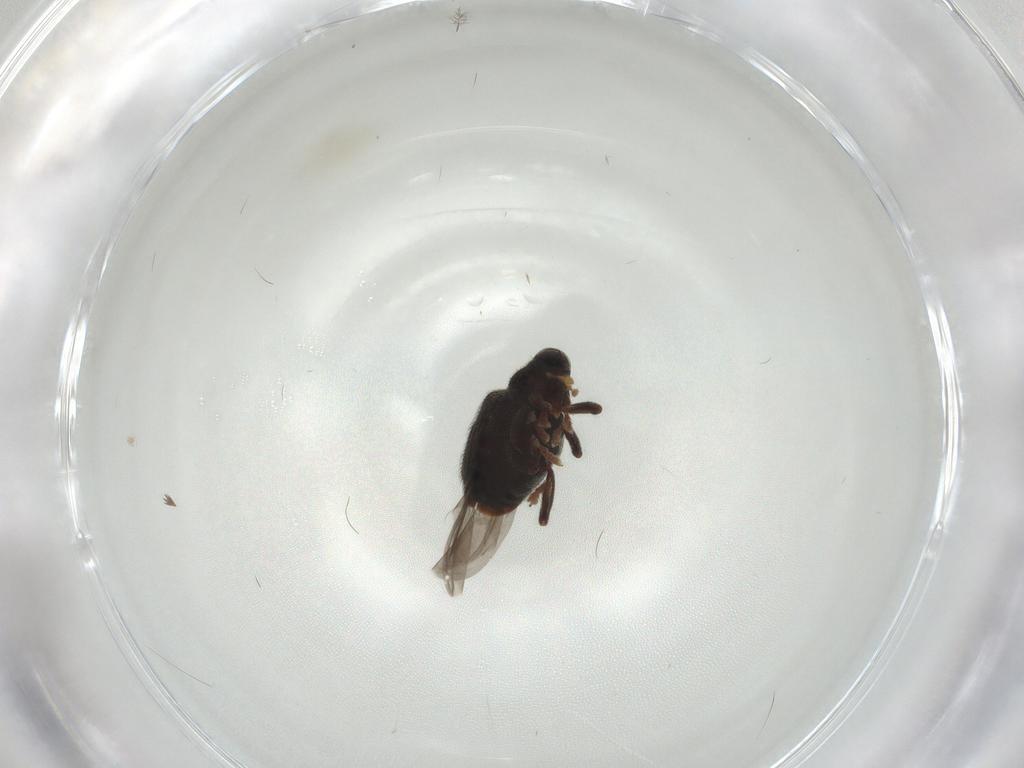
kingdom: Animalia
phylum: Arthropoda
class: Insecta
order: Coleoptera
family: Curculionidae
